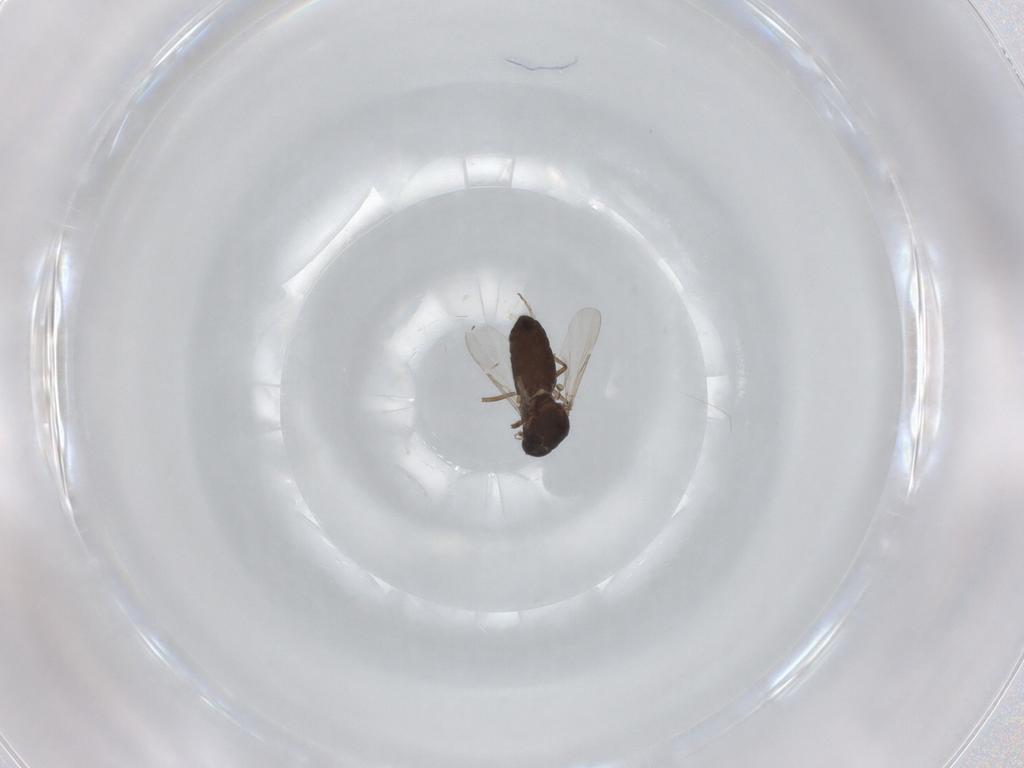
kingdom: Animalia
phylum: Arthropoda
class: Insecta
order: Diptera
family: Ceratopogonidae
